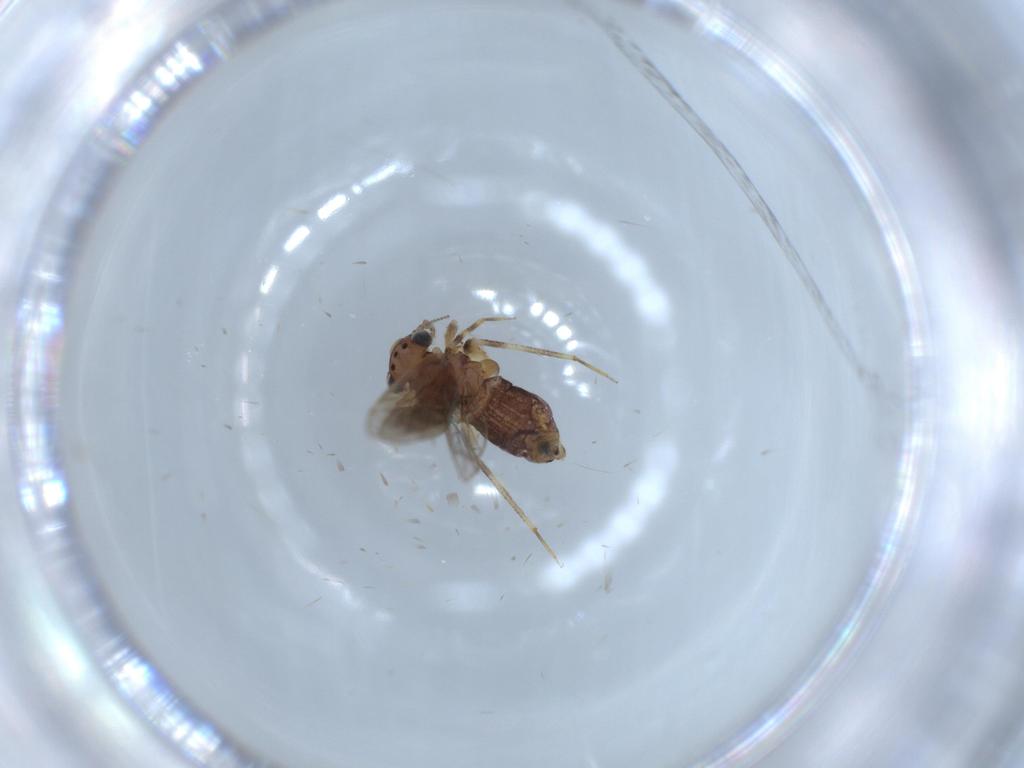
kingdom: Animalia
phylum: Arthropoda
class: Insecta
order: Psocodea
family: Lepidopsocidae
